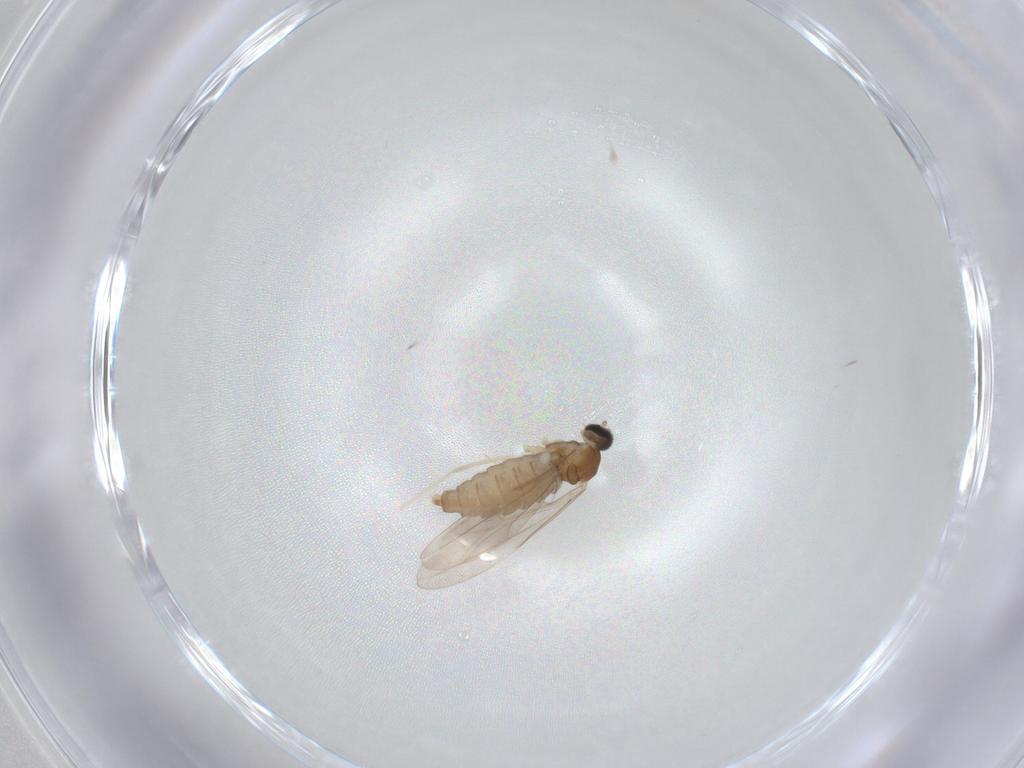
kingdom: Animalia
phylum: Arthropoda
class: Insecta
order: Diptera
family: Cecidomyiidae
